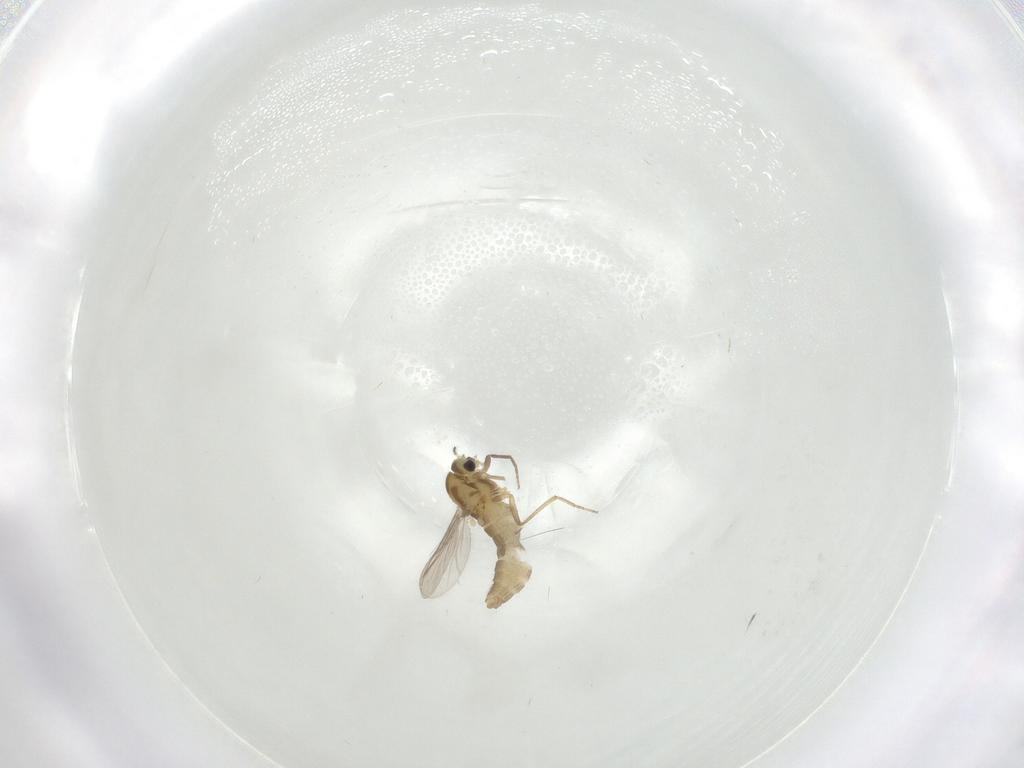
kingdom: Animalia
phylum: Arthropoda
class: Insecta
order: Diptera
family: Chironomidae
